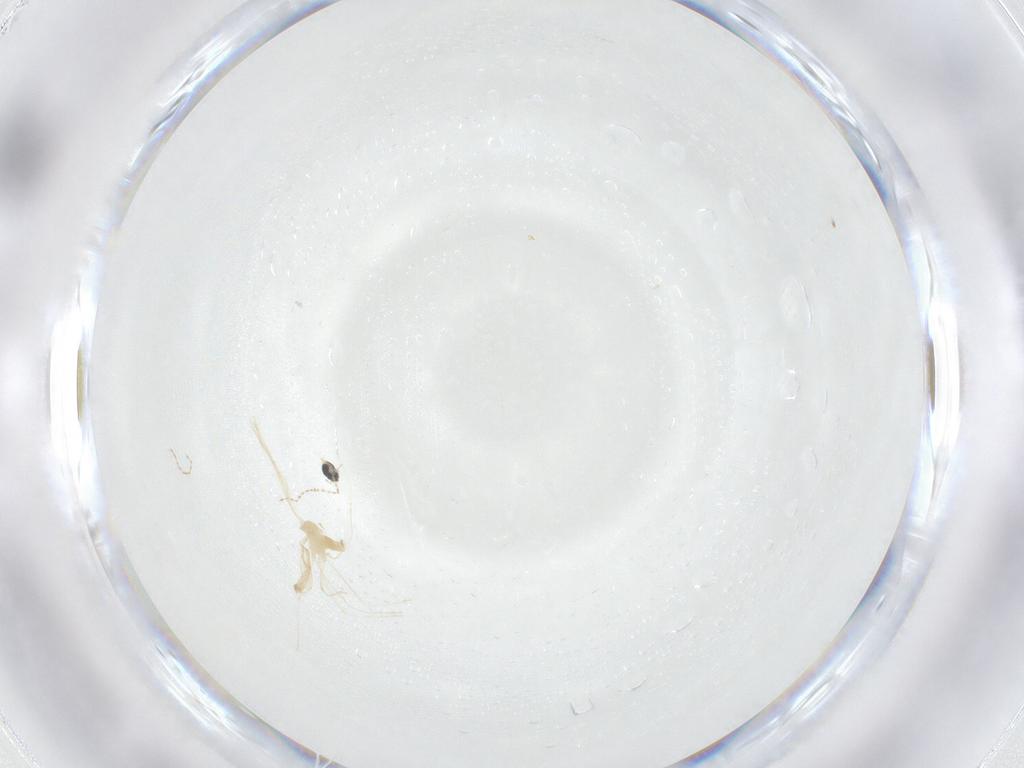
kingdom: Animalia
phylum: Arthropoda
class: Insecta
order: Diptera
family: Cecidomyiidae
